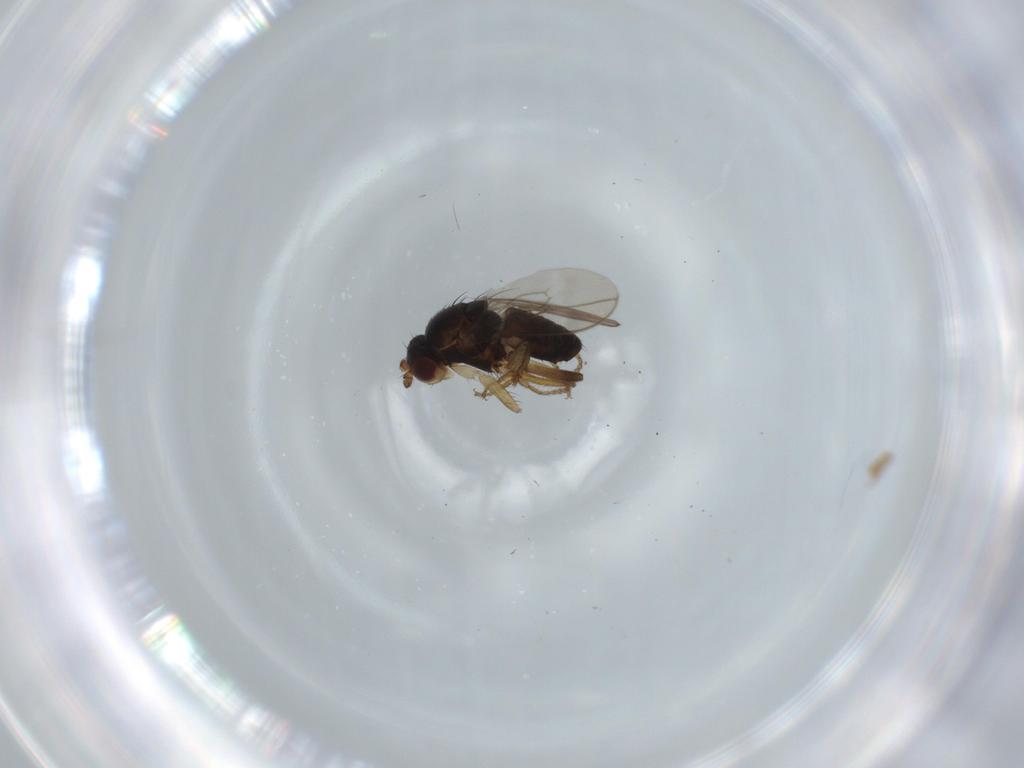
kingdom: Animalia
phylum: Arthropoda
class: Insecta
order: Diptera
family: Sphaeroceridae
